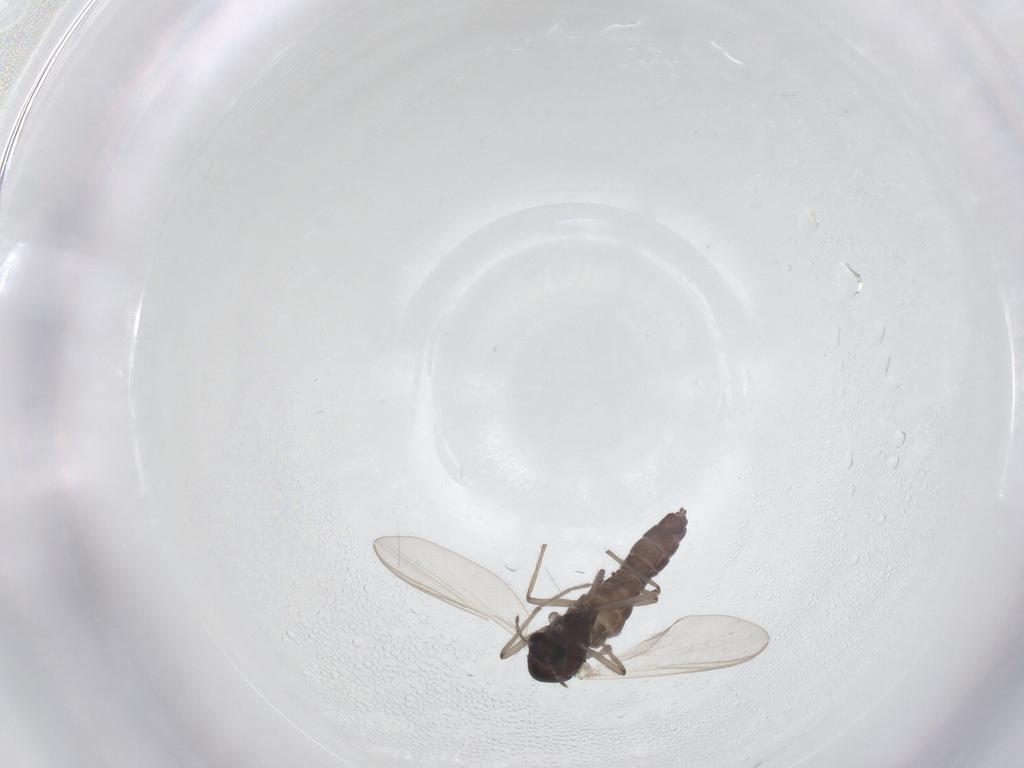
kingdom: Animalia
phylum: Arthropoda
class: Insecta
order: Diptera
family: Chironomidae
